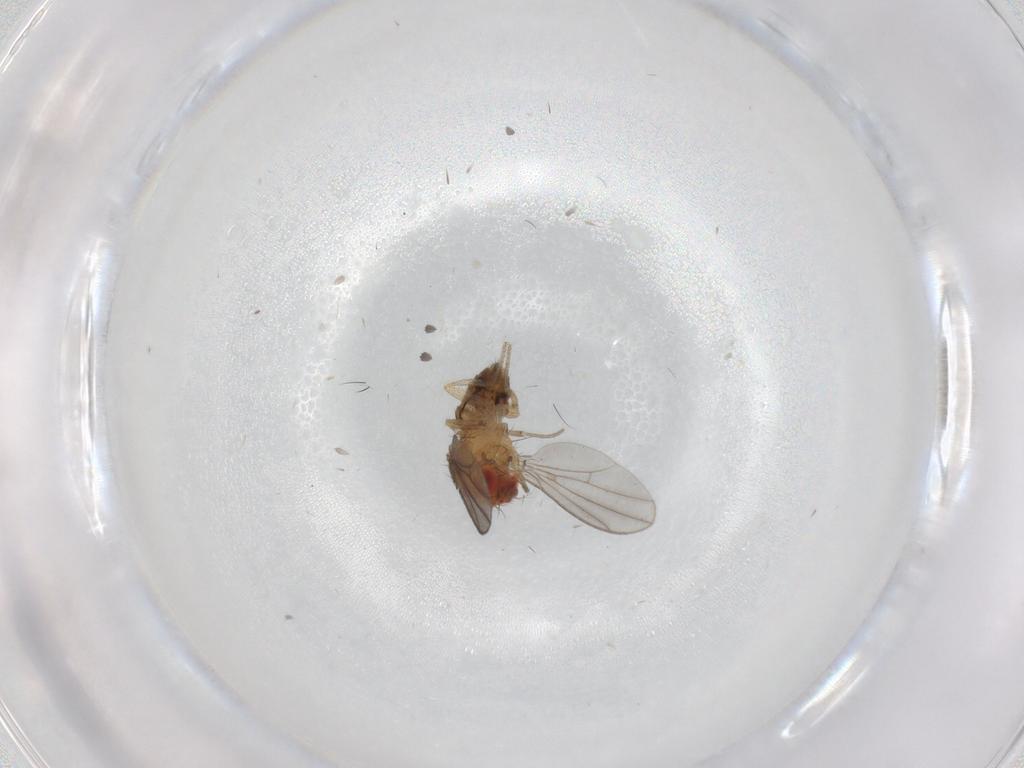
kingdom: Animalia
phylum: Arthropoda
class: Insecta
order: Diptera
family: Drosophilidae
